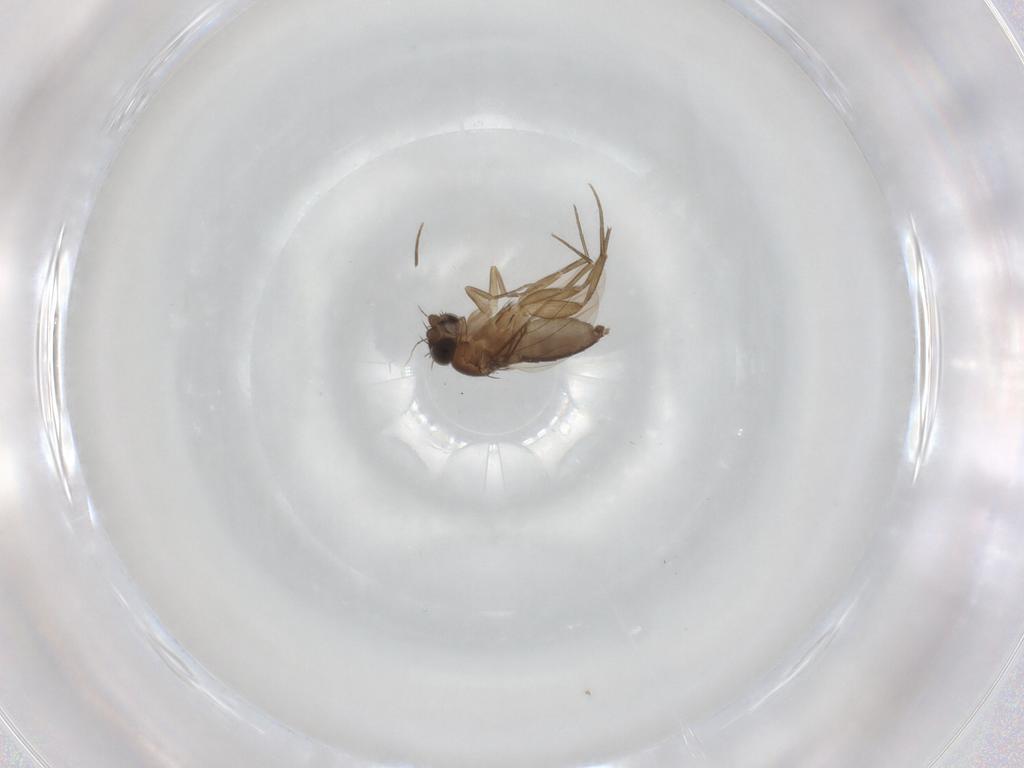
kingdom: Animalia
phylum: Arthropoda
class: Insecta
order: Diptera
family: Phoridae
